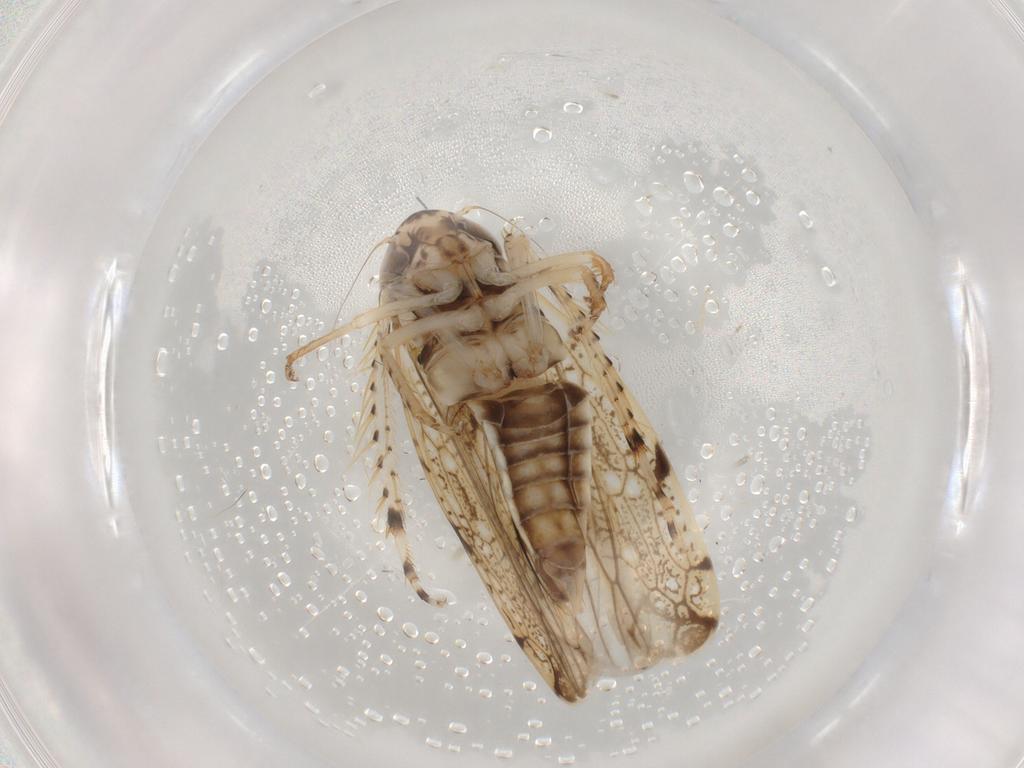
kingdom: Animalia
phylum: Arthropoda
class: Insecta
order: Hemiptera
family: Cicadellidae
